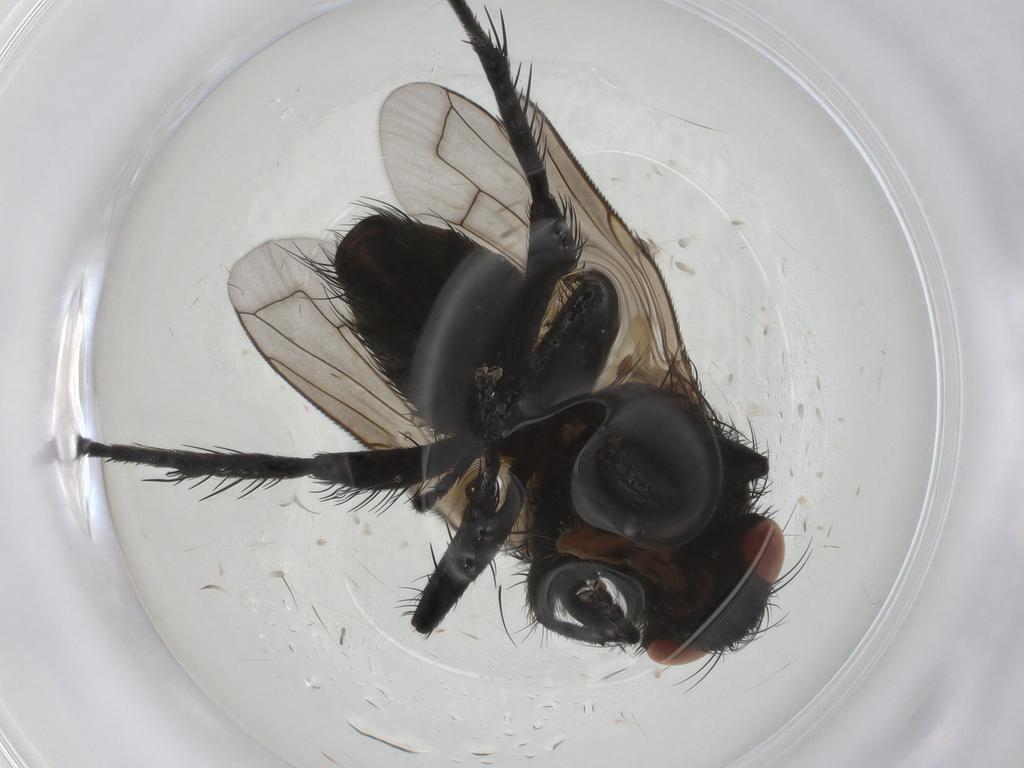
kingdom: Animalia
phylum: Arthropoda
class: Insecta
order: Diptera
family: Tachinidae
